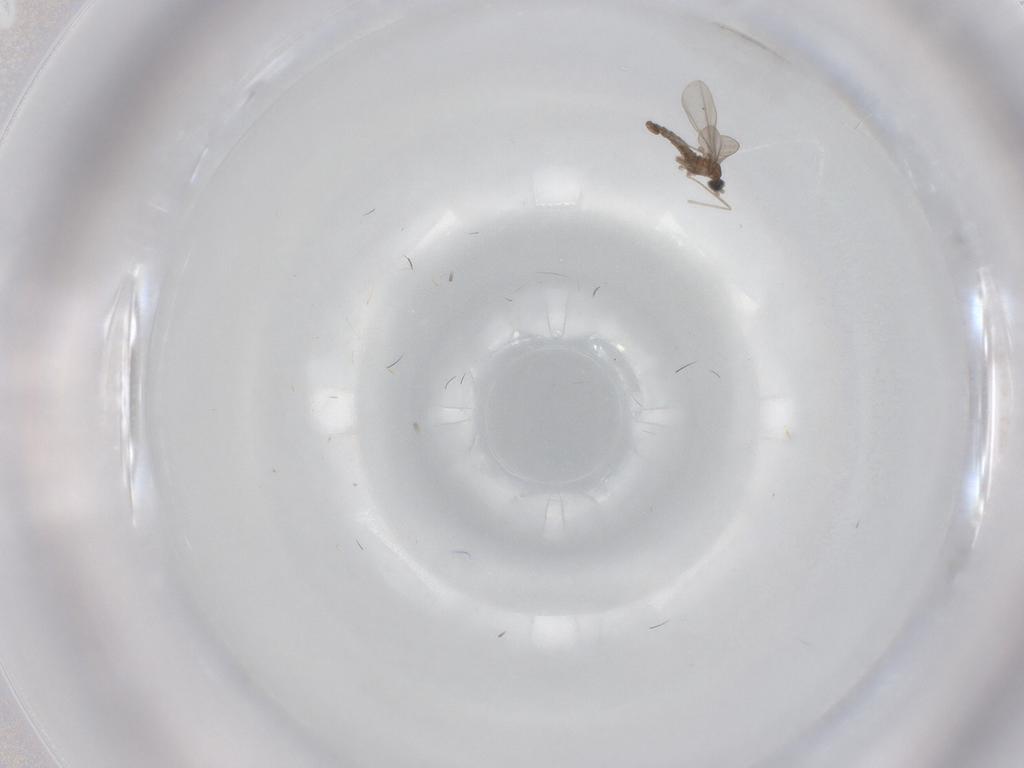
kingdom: Animalia
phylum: Arthropoda
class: Insecta
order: Diptera
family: Cecidomyiidae
